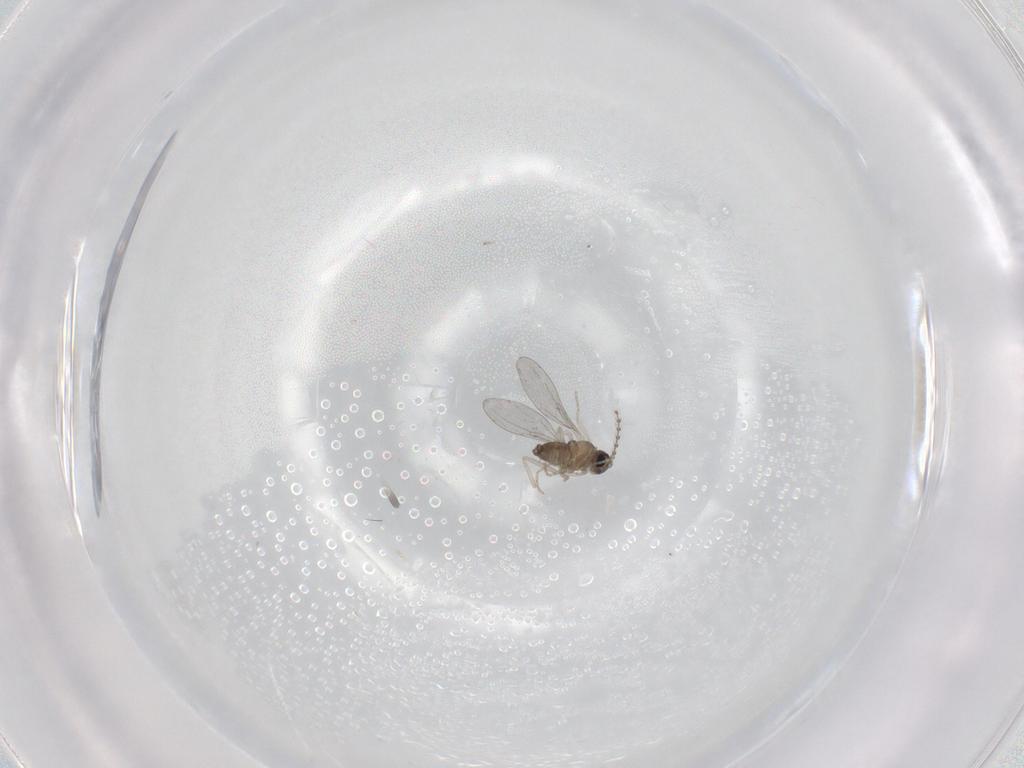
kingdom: Animalia
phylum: Arthropoda
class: Insecta
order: Diptera
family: Cecidomyiidae
